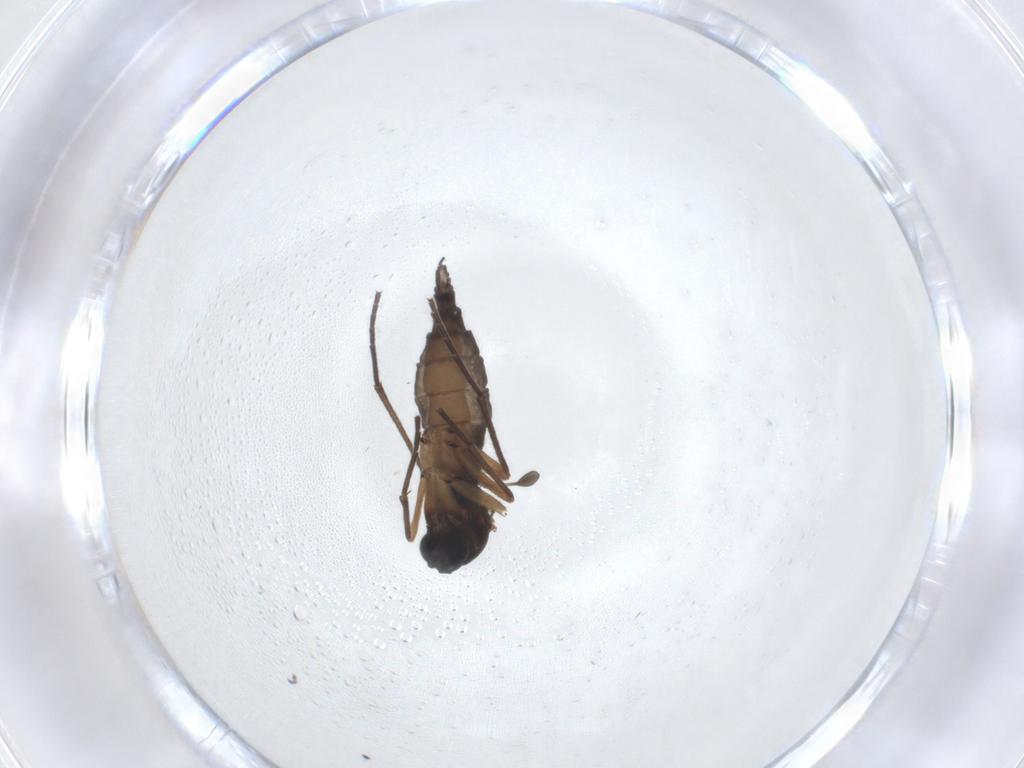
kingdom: Animalia
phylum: Arthropoda
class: Insecta
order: Diptera
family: Sciaridae
